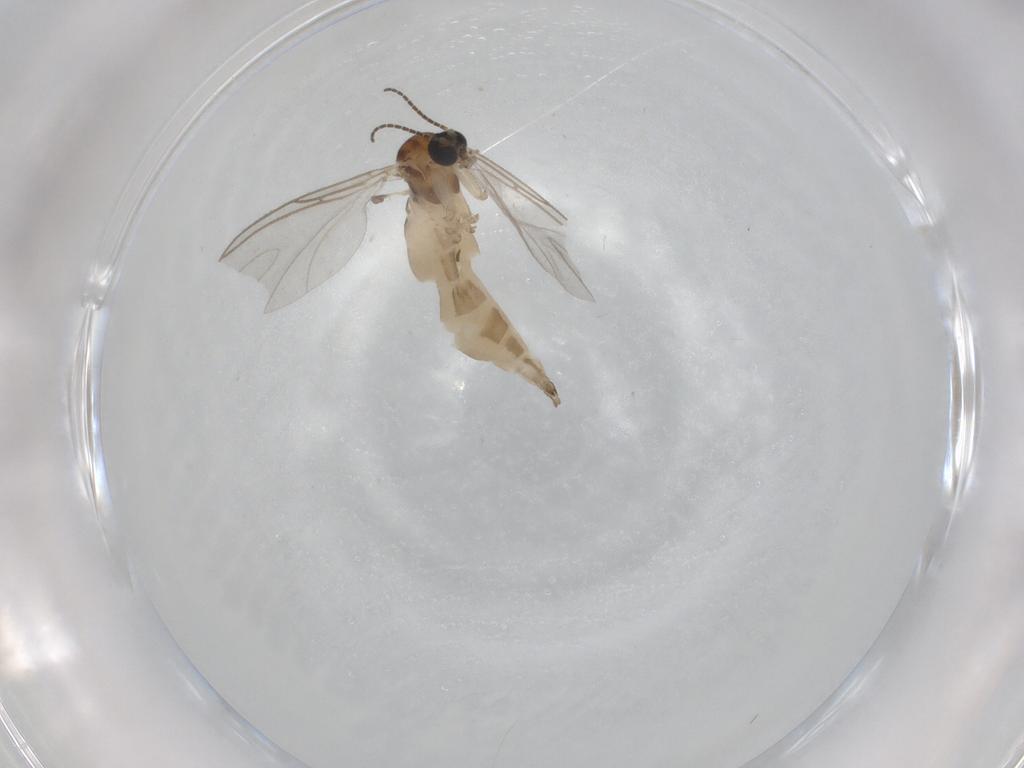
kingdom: Animalia
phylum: Arthropoda
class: Insecta
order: Diptera
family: Sciaridae
